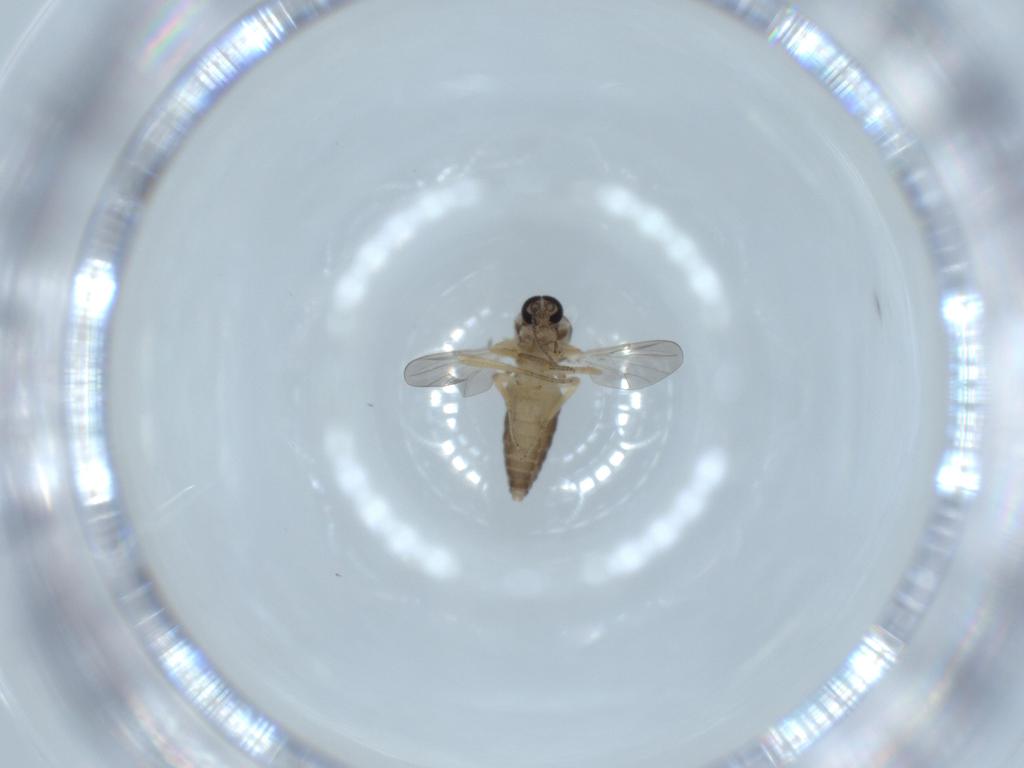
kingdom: Animalia
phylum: Arthropoda
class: Insecta
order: Diptera
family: Ceratopogonidae
